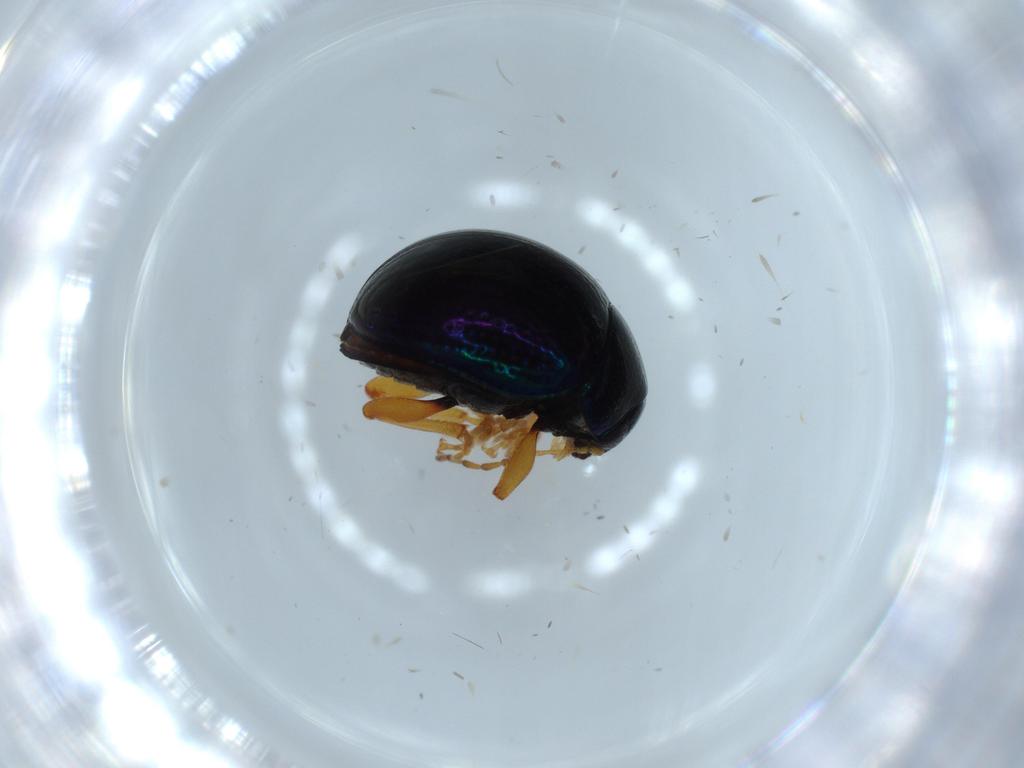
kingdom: Animalia
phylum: Arthropoda
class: Insecta
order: Coleoptera
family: Chrysomelidae
